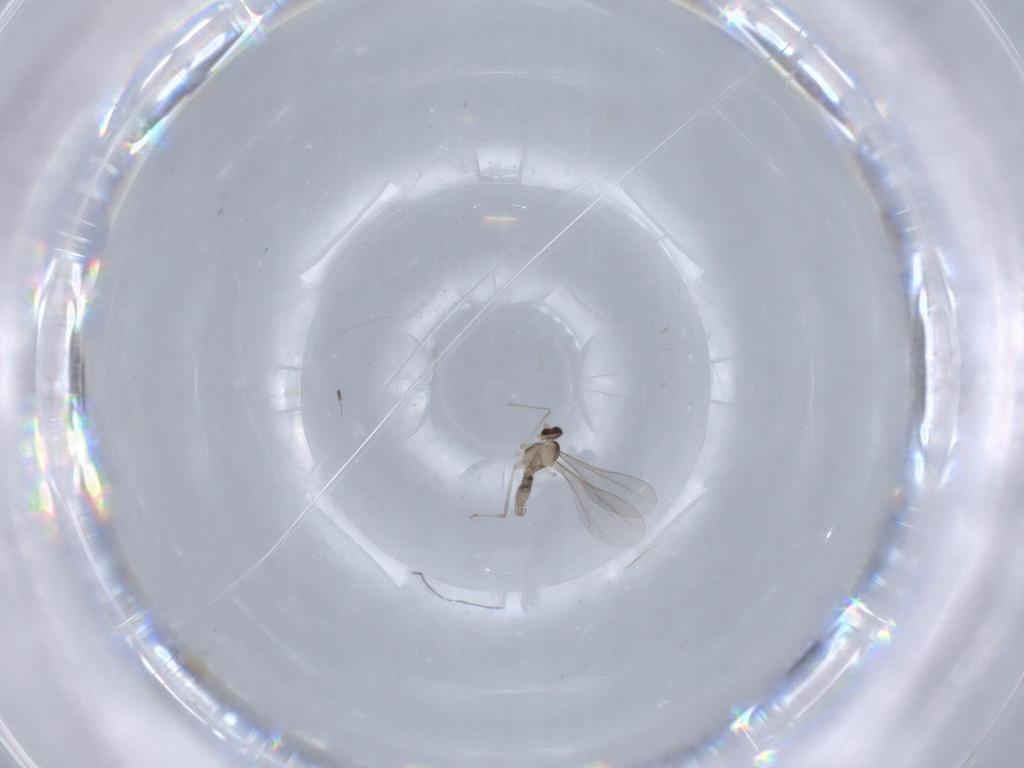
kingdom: Animalia
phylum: Arthropoda
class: Insecta
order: Diptera
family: Cecidomyiidae
